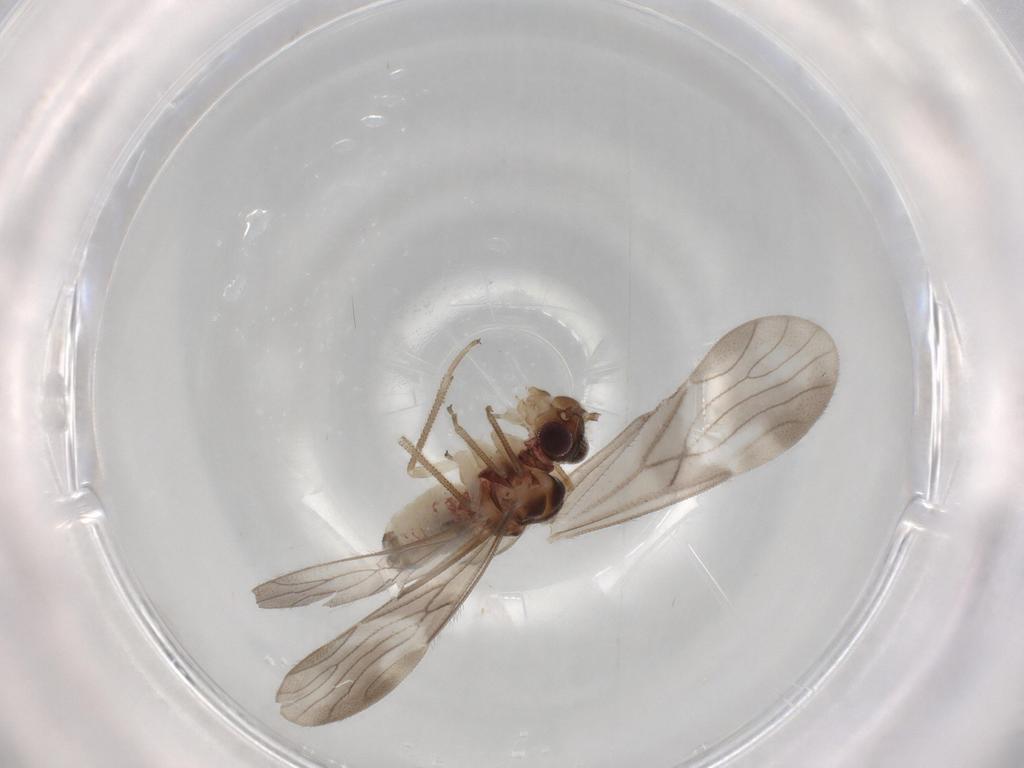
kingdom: Animalia
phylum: Arthropoda
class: Insecta
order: Psocodea
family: Amphipsocidae
